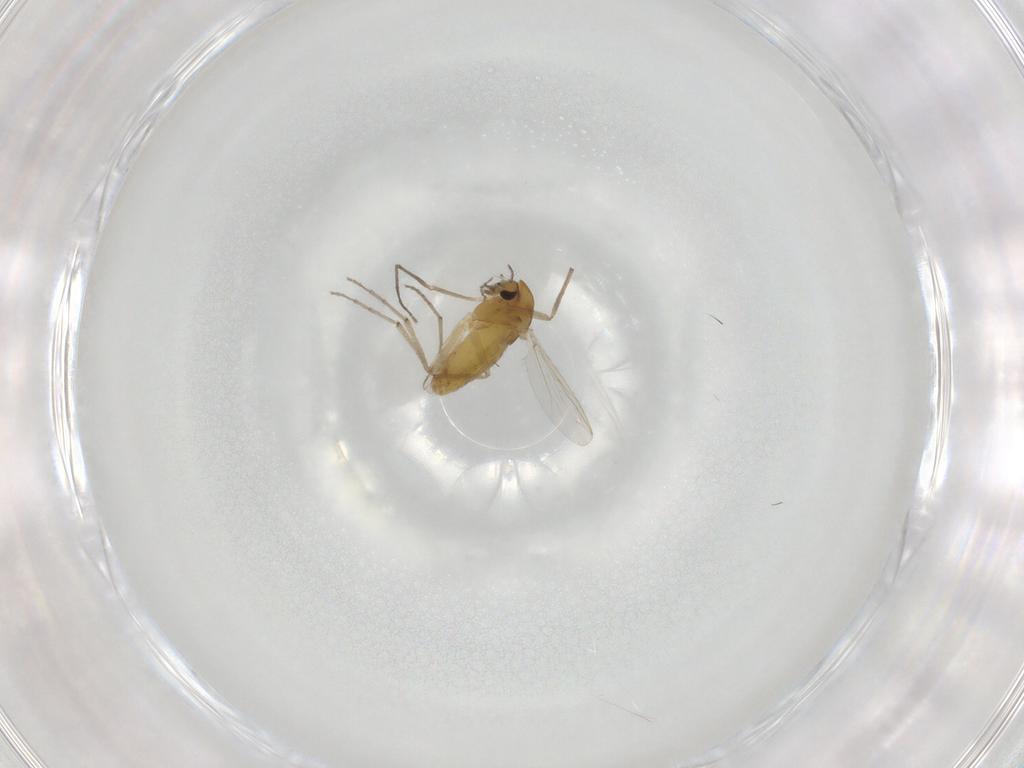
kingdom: Animalia
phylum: Arthropoda
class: Insecta
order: Diptera
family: Chironomidae
